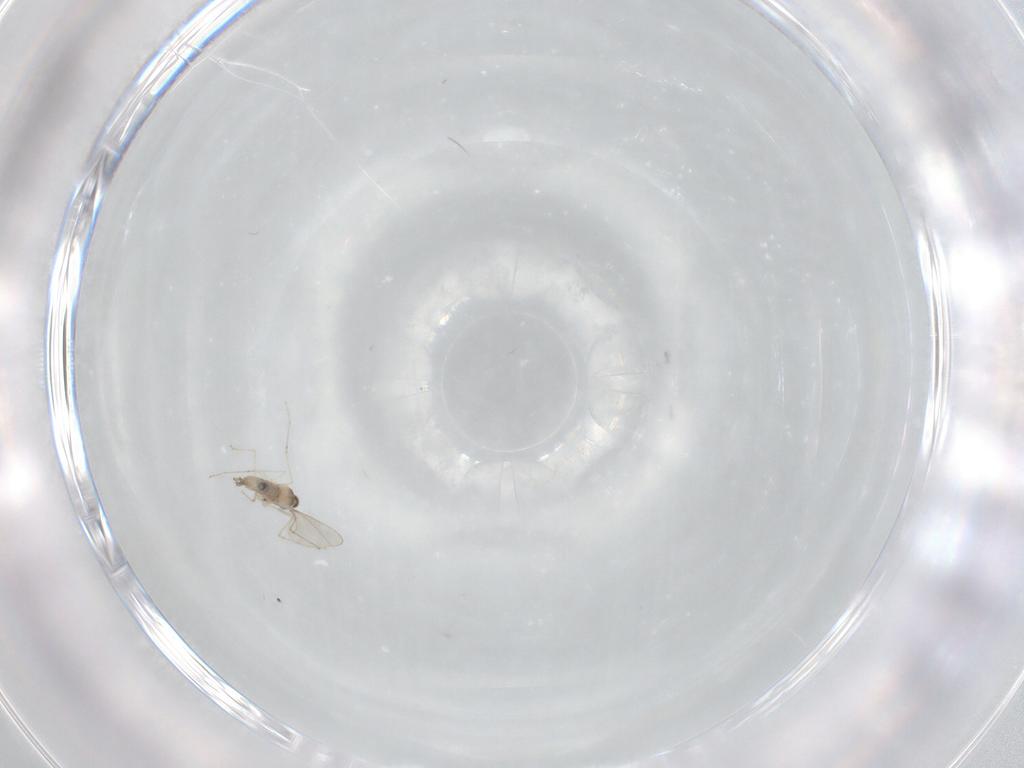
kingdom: Animalia
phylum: Arthropoda
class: Insecta
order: Diptera
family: Cecidomyiidae
